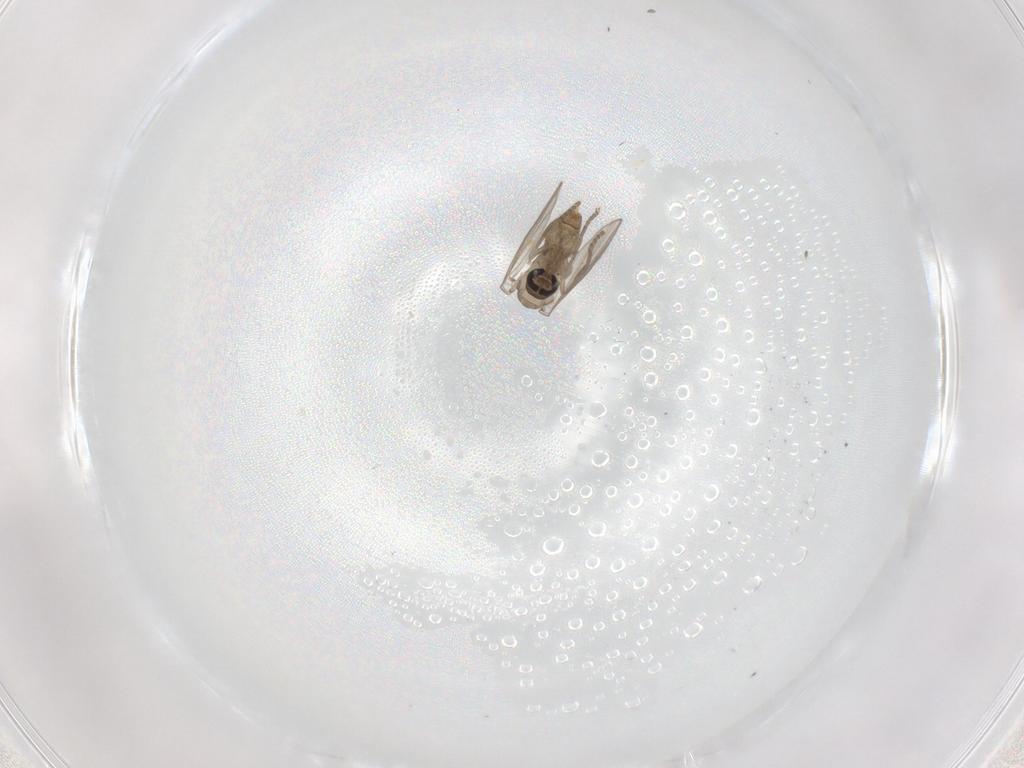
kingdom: Animalia
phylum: Arthropoda
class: Insecta
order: Diptera
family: Psychodidae
